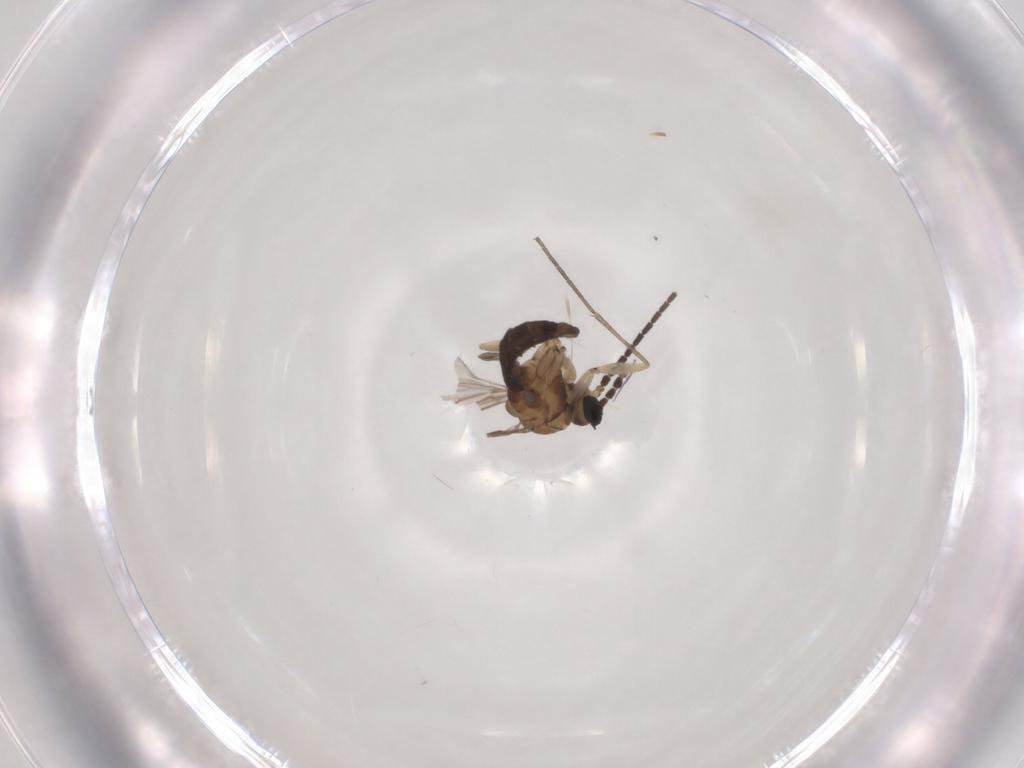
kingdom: Animalia
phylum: Arthropoda
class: Insecta
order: Diptera
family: Sciaridae
